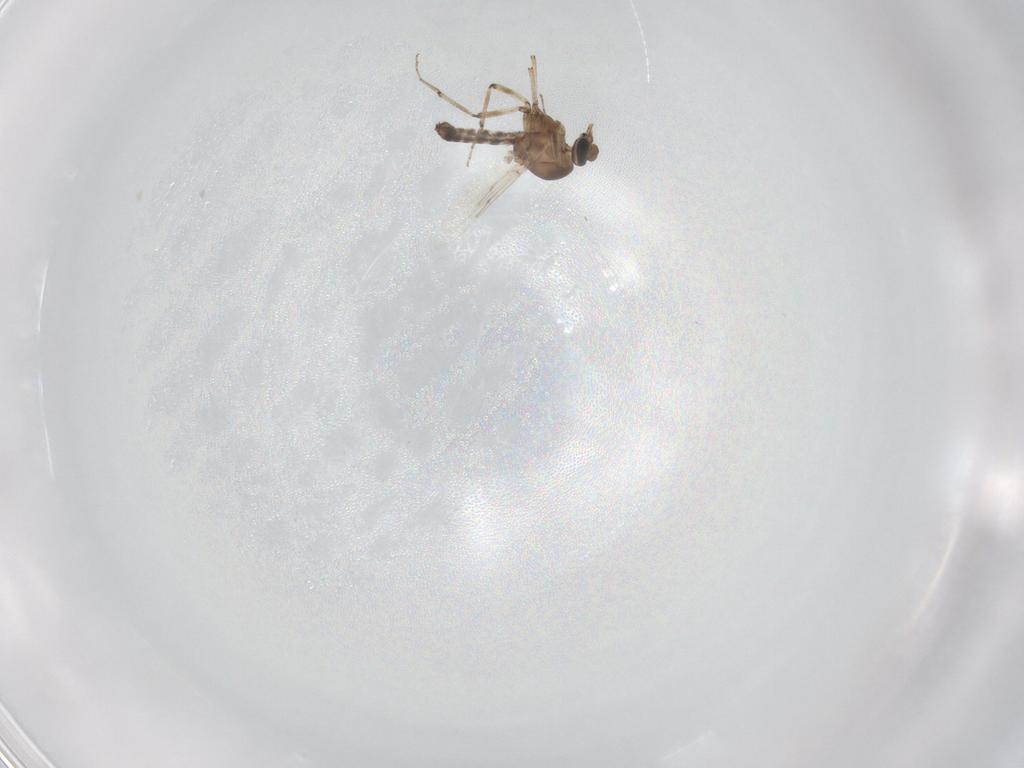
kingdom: Animalia
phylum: Arthropoda
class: Insecta
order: Diptera
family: Ceratopogonidae
